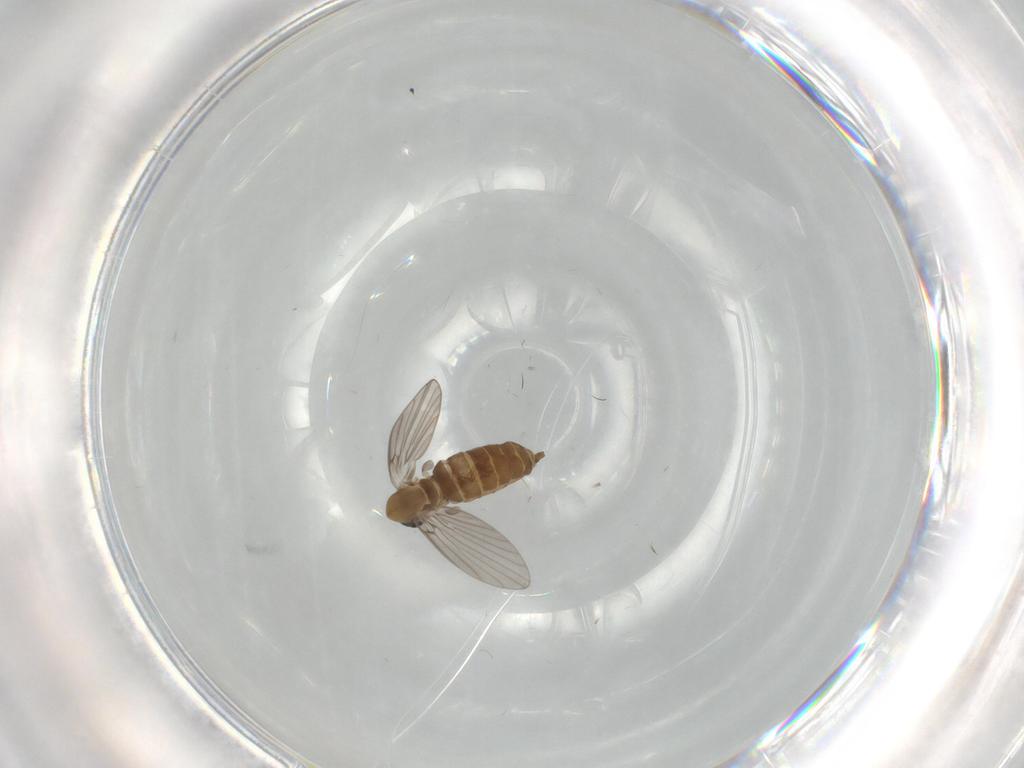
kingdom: Animalia
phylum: Arthropoda
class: Insecta
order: Diptera
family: Psychodidae
